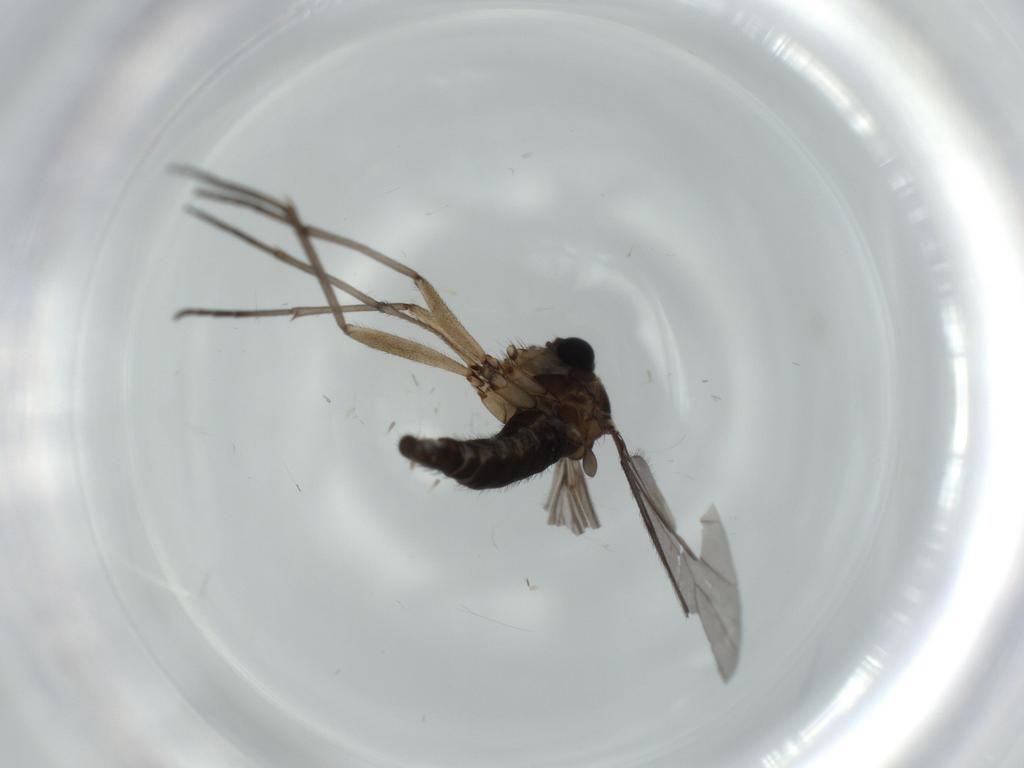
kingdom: Animalia
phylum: Arthropoda
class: Insecta
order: Diptera
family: Sciaridae
